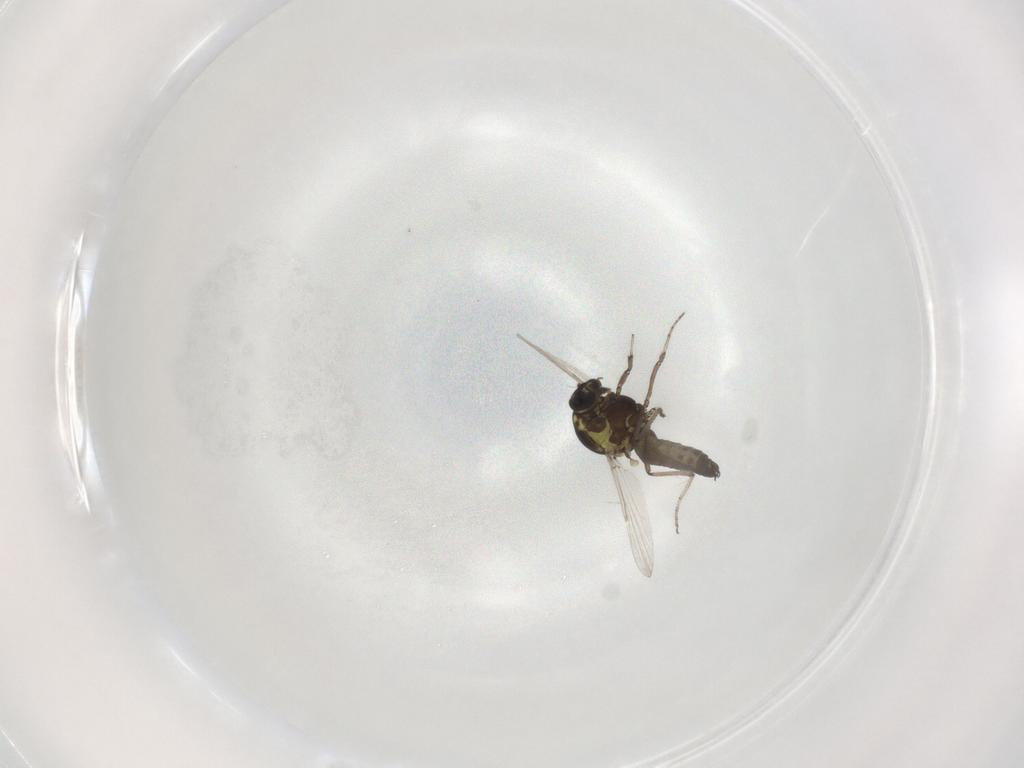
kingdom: Animalia
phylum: Arthropoda
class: Insecta
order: Diptera
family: Ceratopogonidae
